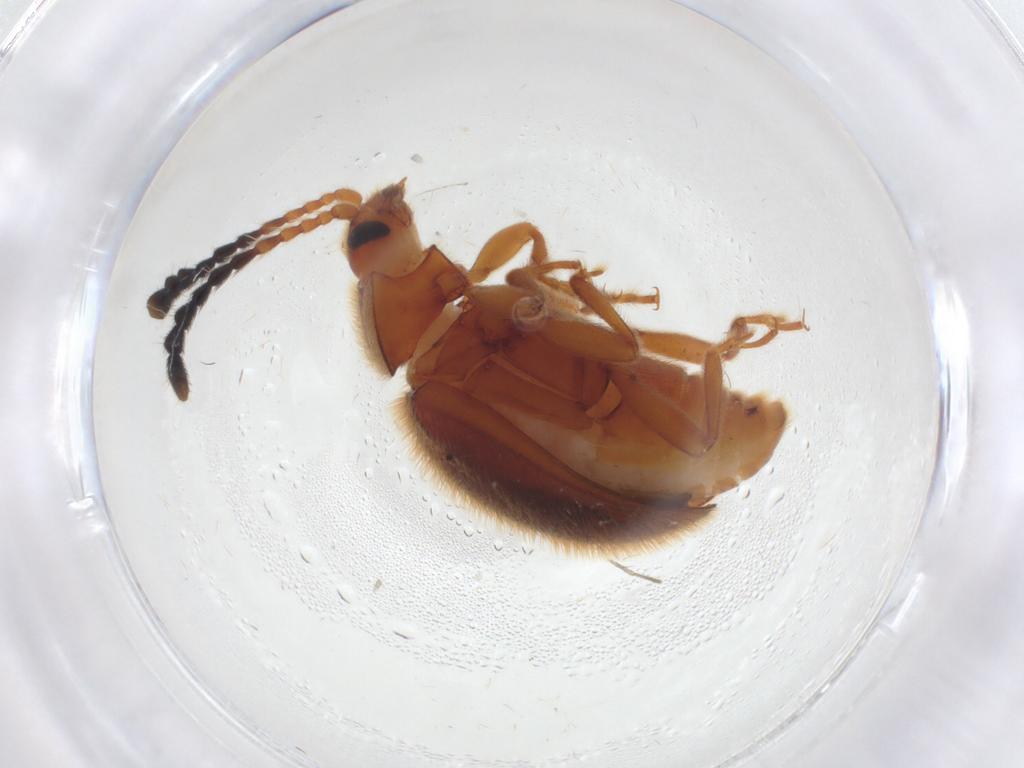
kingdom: Animalia
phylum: Arthropoda
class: Insecta
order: Coleoptera
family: Endomychidae
